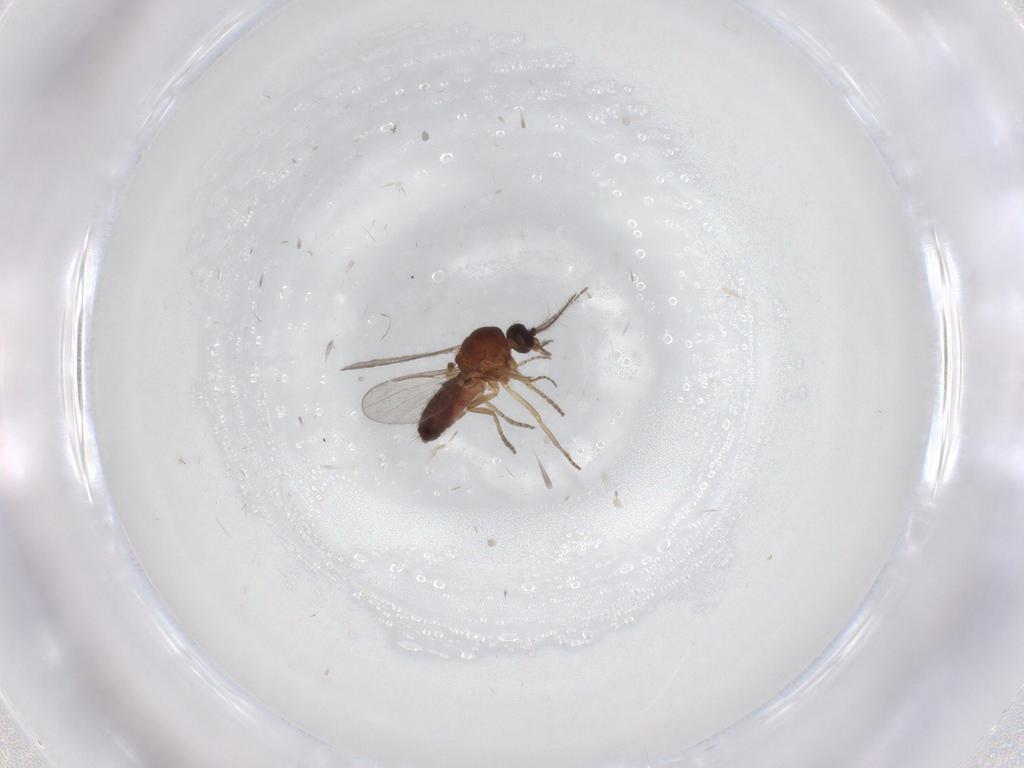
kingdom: Animalia
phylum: Arthropoda
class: Insecta
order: Diptera
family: Ceratopogonidae
